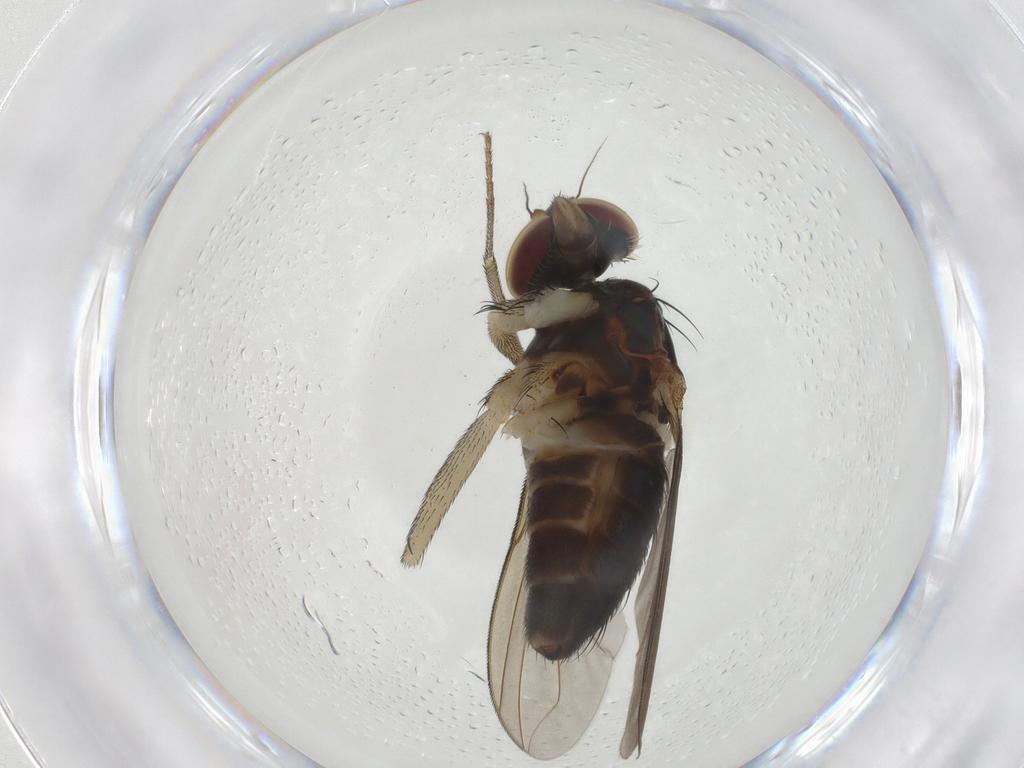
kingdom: Animalia
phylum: Arthropoda
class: Insecta
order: Diptera
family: Dolichopodidae
